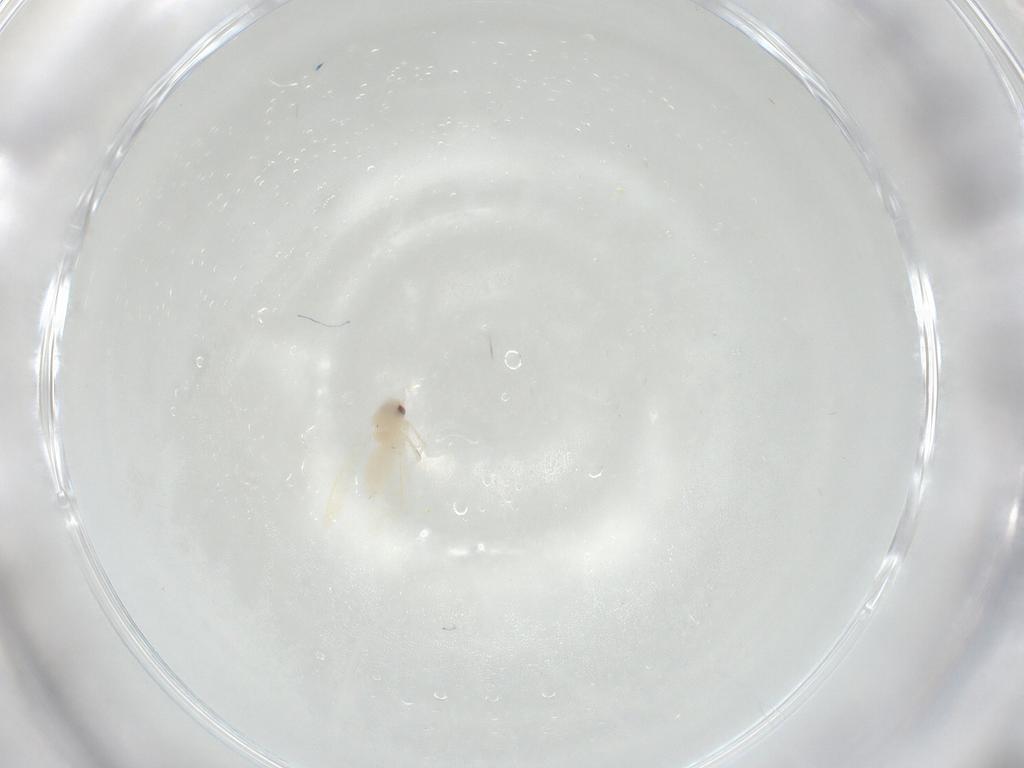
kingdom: Animalia
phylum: Arthropoda
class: Insecta
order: Hemiptera
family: Aleyrodidae
